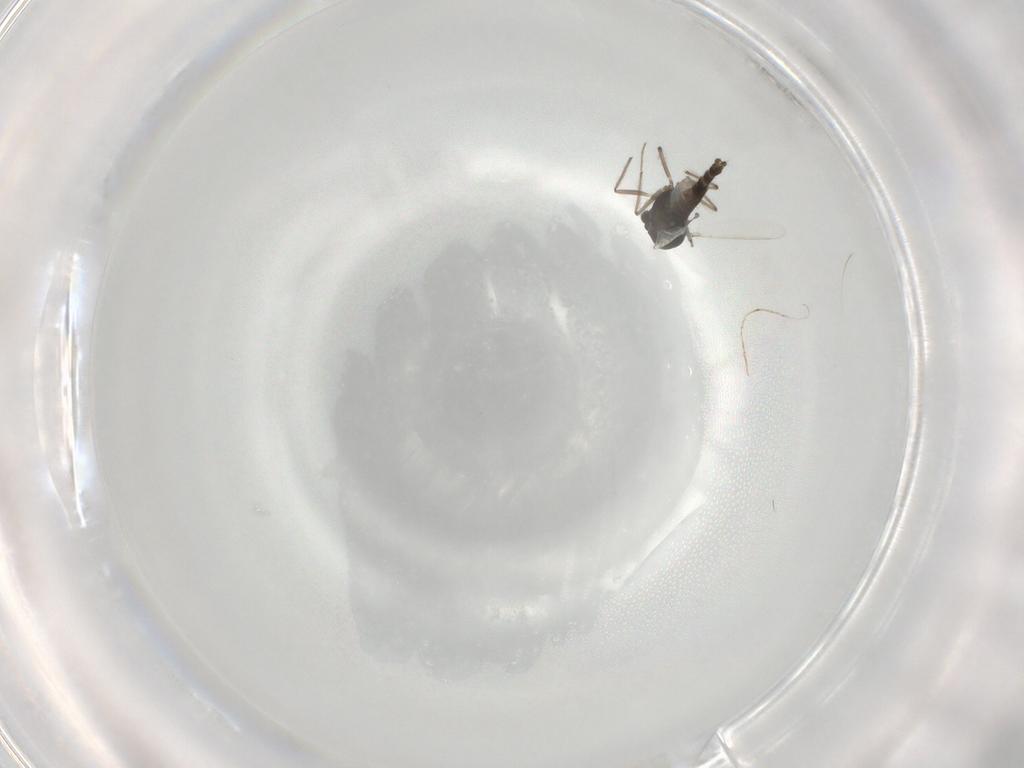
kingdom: Animalia
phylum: Arthropoda
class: Insecta
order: Diptera
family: Chironomidae
